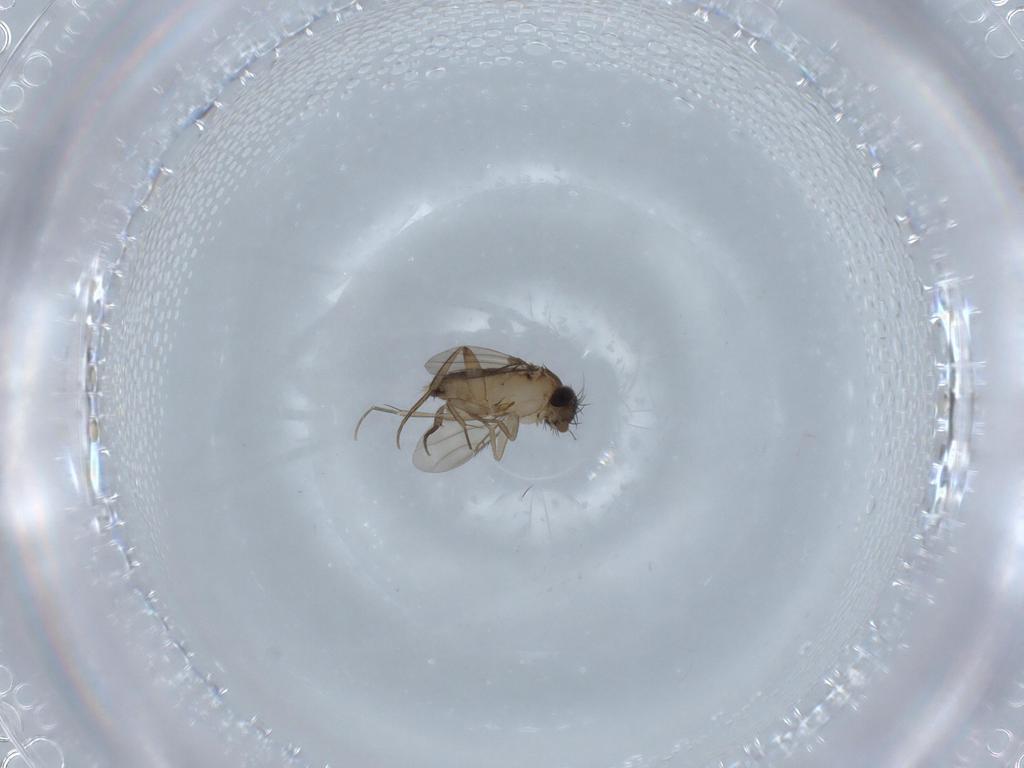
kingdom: Animalia
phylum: Arthropoda
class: Insecta
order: Diptera
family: Phoridae
